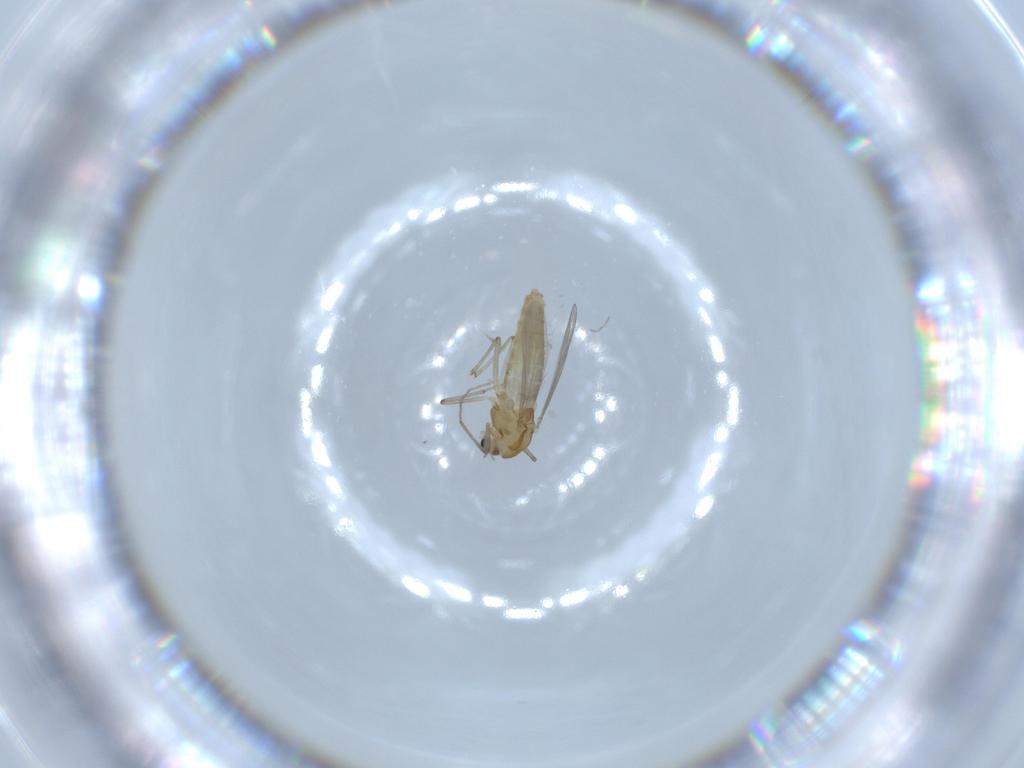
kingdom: Animalia
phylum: Arthropoda
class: Insecta
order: Diptera
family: Chironomidae
